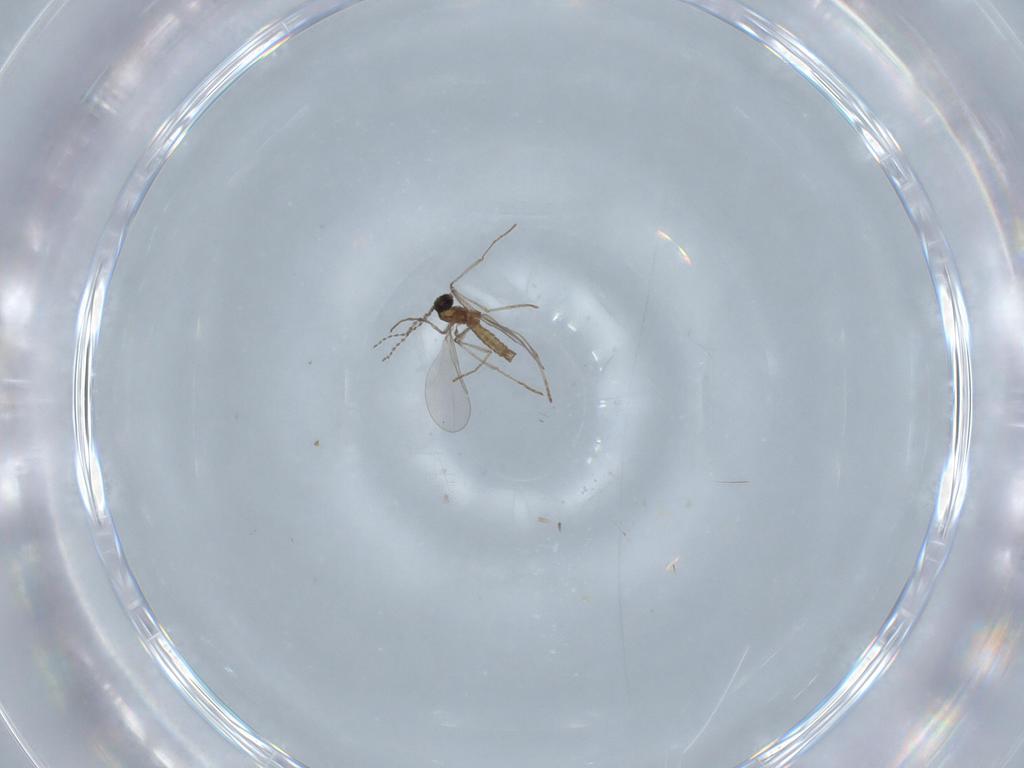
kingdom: Animalia
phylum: Arthropoda
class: Insecta
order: Diptera
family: Cecidomyiidae
